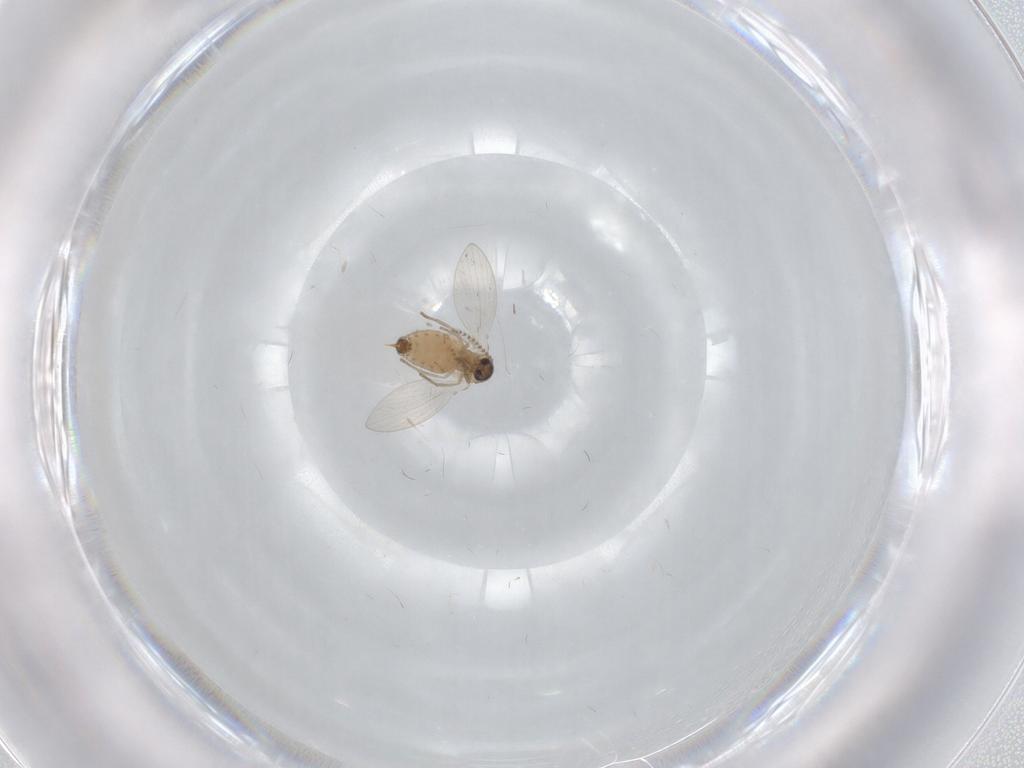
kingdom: Animalia
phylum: Arthropoda
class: Insecta
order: Diptera
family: Psychodidae
